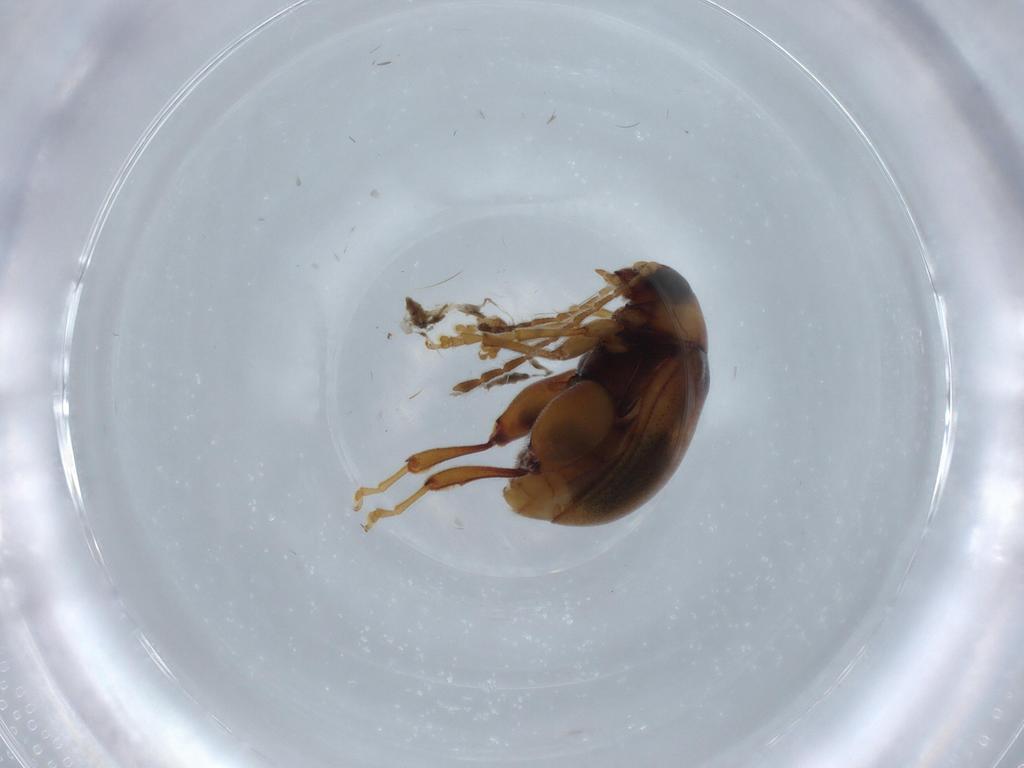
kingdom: Animalia
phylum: Arthropoda
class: Insecta
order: Coleoptera
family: Chrysomelidae
